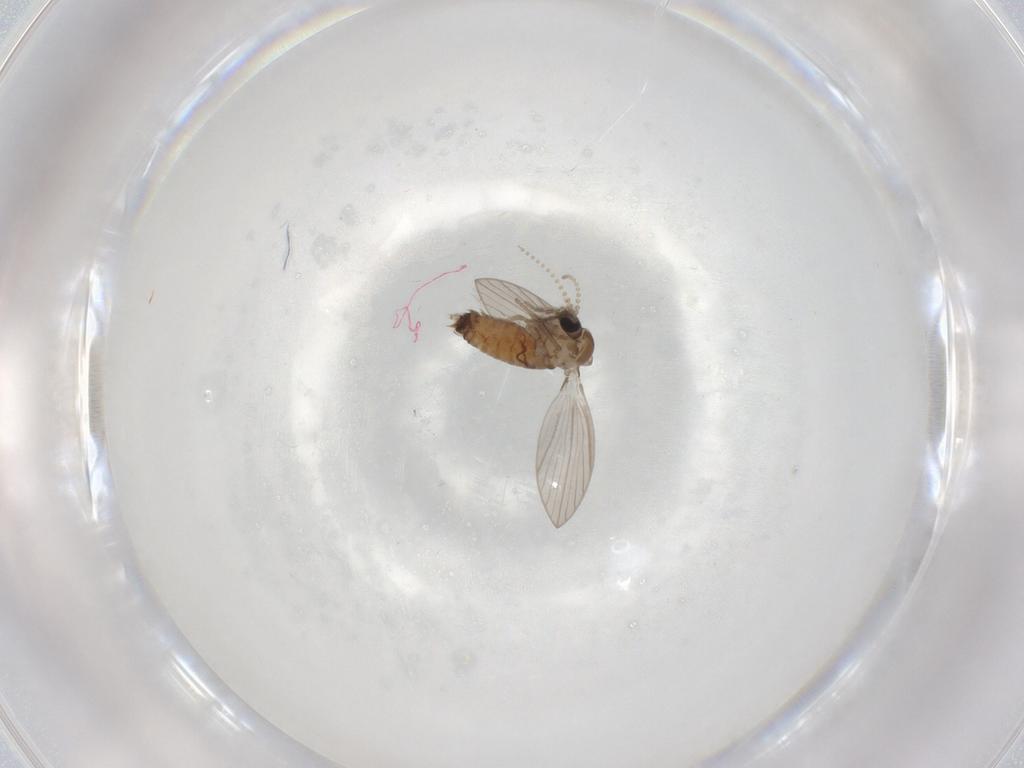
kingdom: Animalia
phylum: Arthropoda
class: Insecta
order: Diptera
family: Psychodidae
